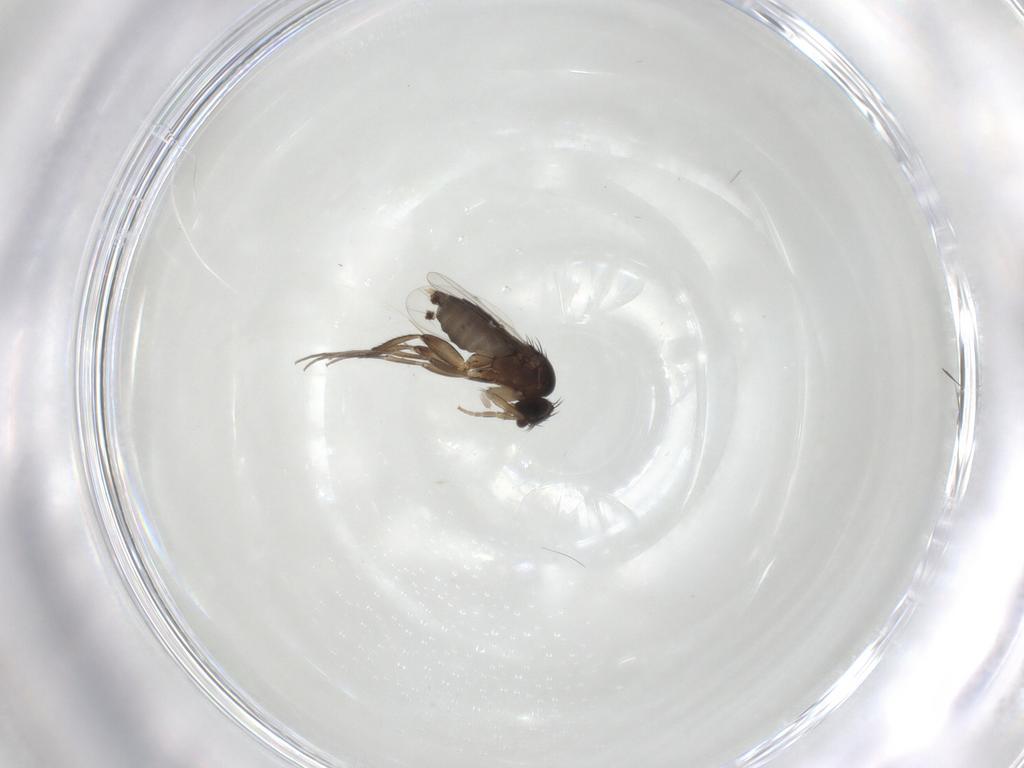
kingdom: Animalia
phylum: Arthropoda
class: Insecta
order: Diptera
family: Phoridae
